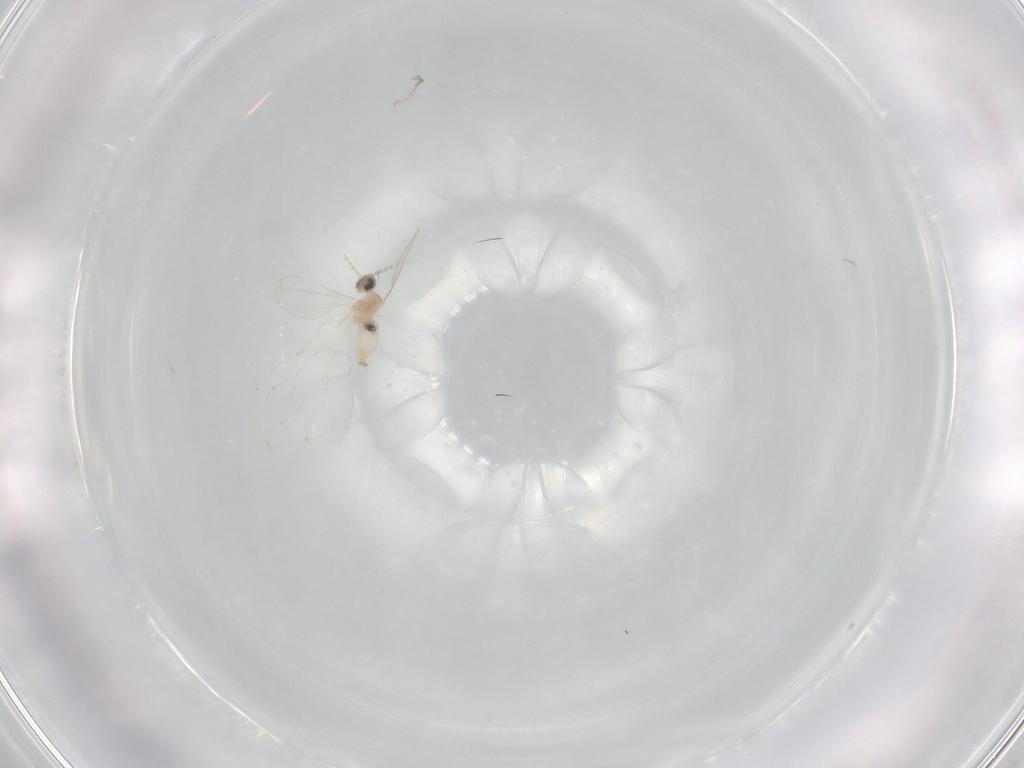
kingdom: Animalia
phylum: Arthropoda
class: Insecta
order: Diptera
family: Cecidomyiidae
